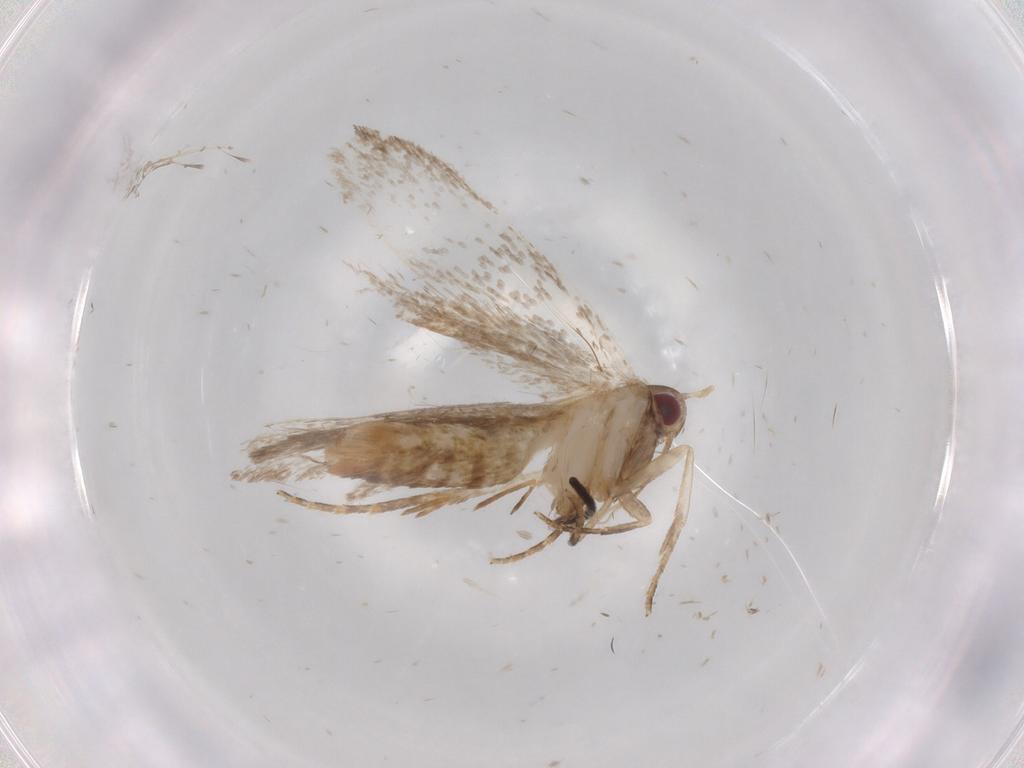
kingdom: Animalia
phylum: Arthropoda
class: Insecta
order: Lepidoptera
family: Gelechiidae
